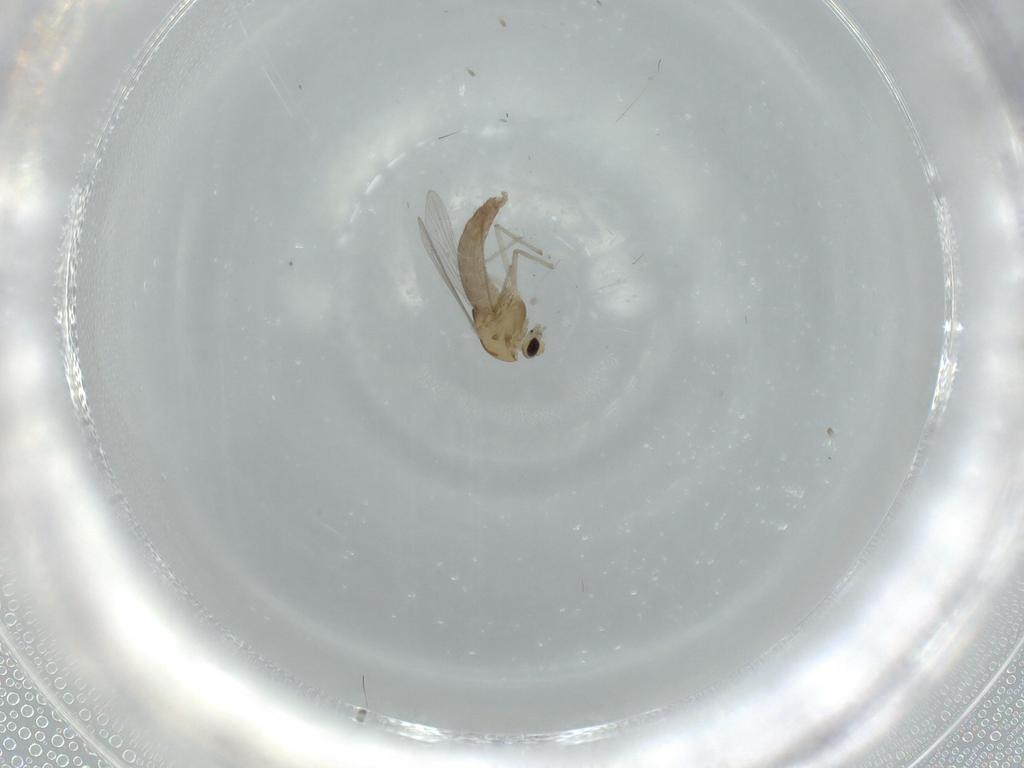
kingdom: Animalia
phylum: Arthropoda
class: Insecta
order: Diptera
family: Chironomidae
